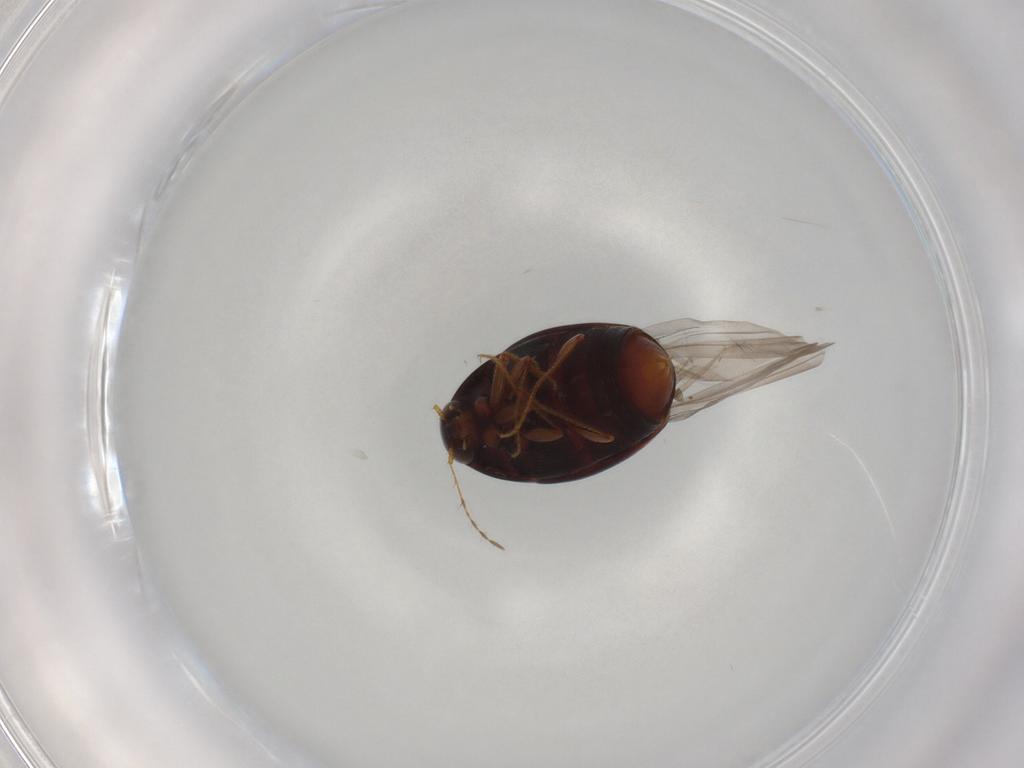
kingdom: Animalia
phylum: Arthropoda
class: Insecta
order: Coleoptera
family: Staphylinidae
